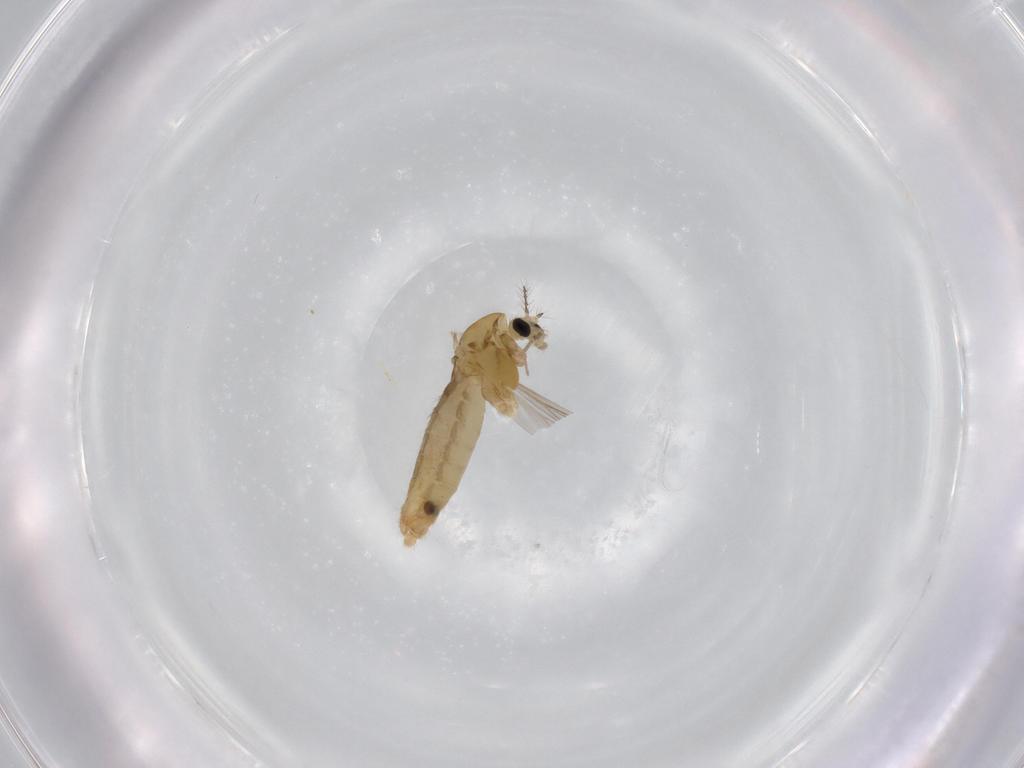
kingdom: Animalia
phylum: Arthropoda
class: Insecta
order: Diptera
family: Chironomidae
